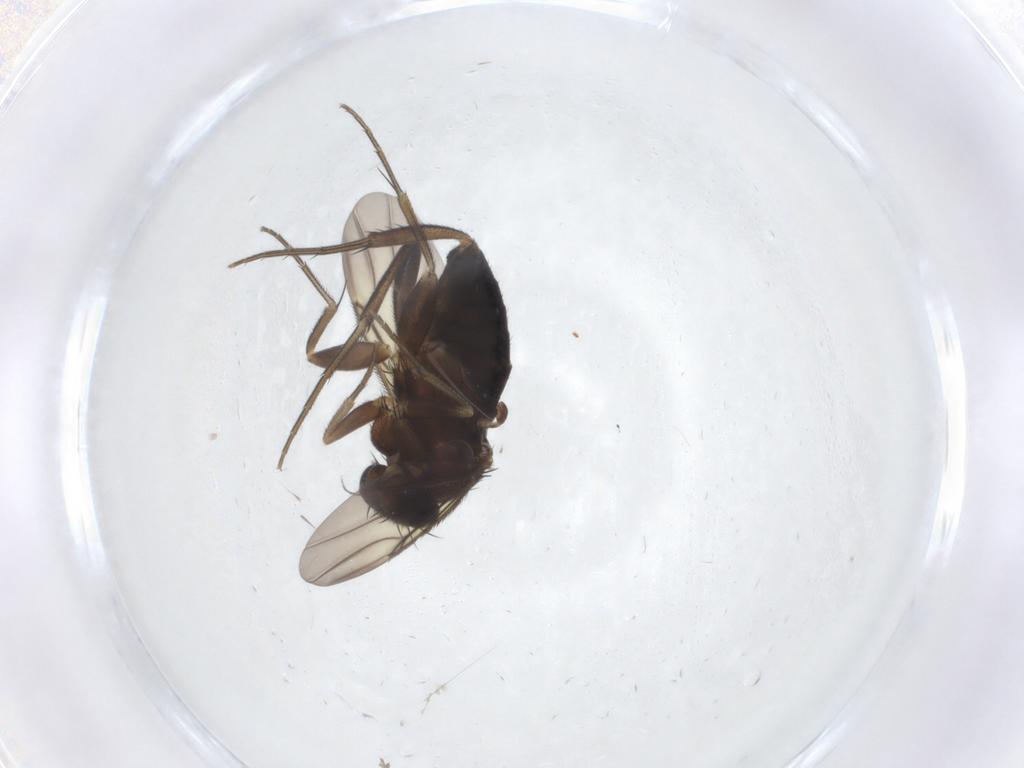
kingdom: Animalia
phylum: Arthropoda
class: Insecta
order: Diptera
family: Phoridae
